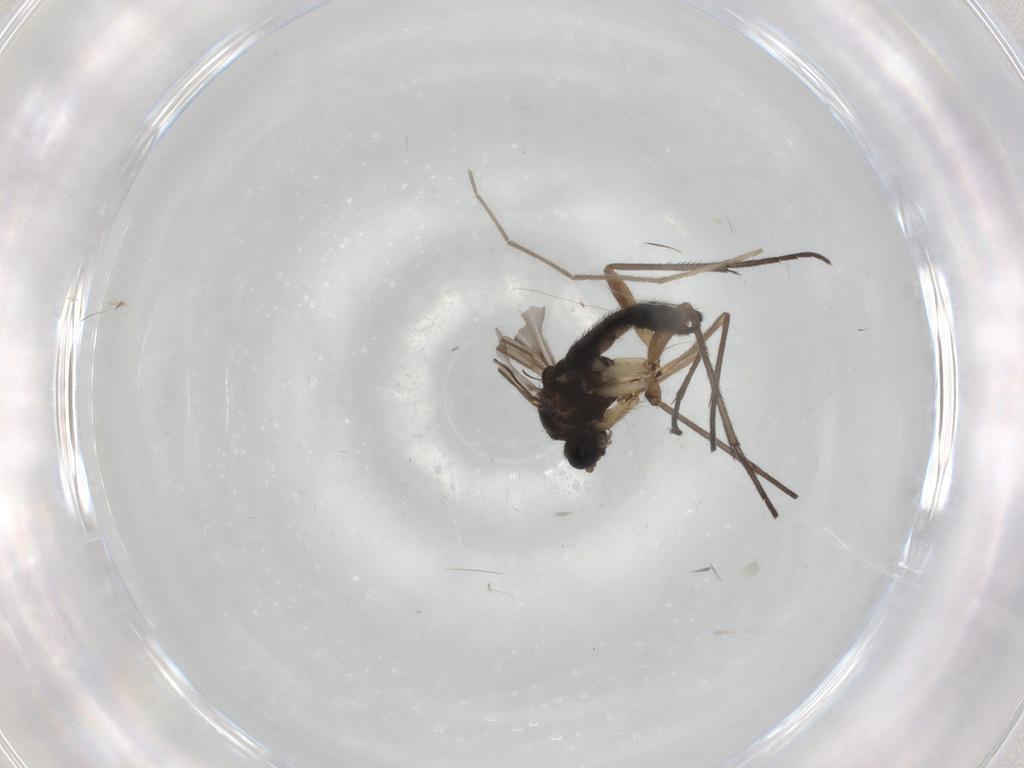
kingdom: Animalia
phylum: Arthropoda
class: Insecta
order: Diptera
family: Sciaridae
